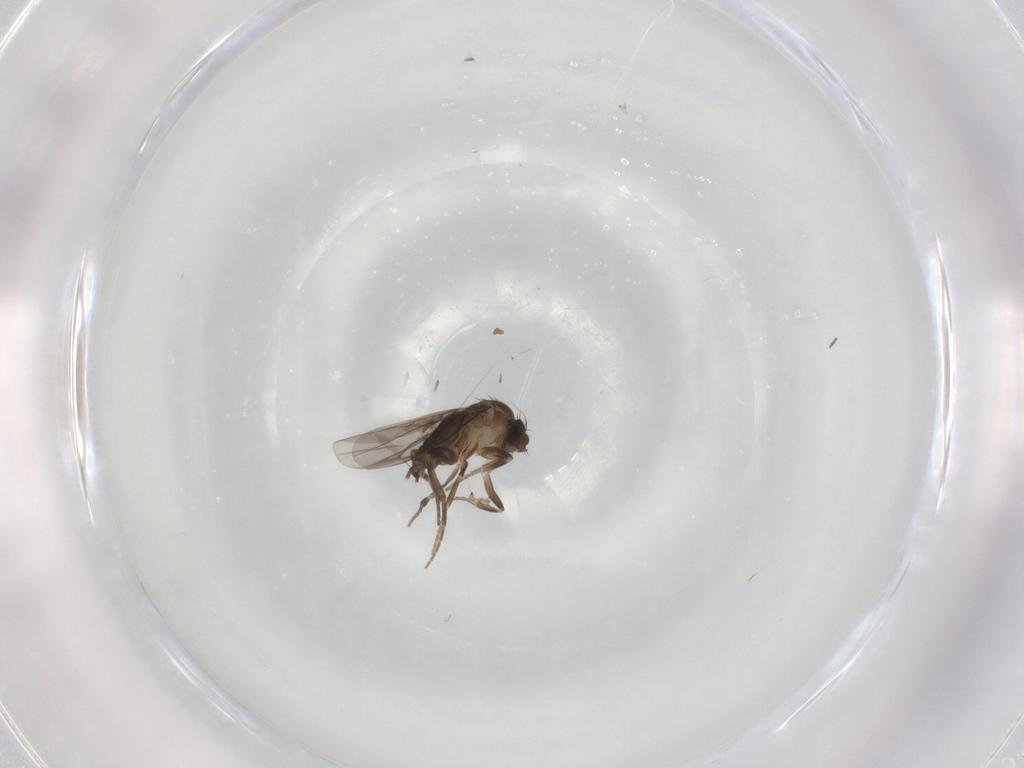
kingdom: Animalia
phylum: Arthropoda
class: Insecta
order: Diptera
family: Cecidomyiidae
